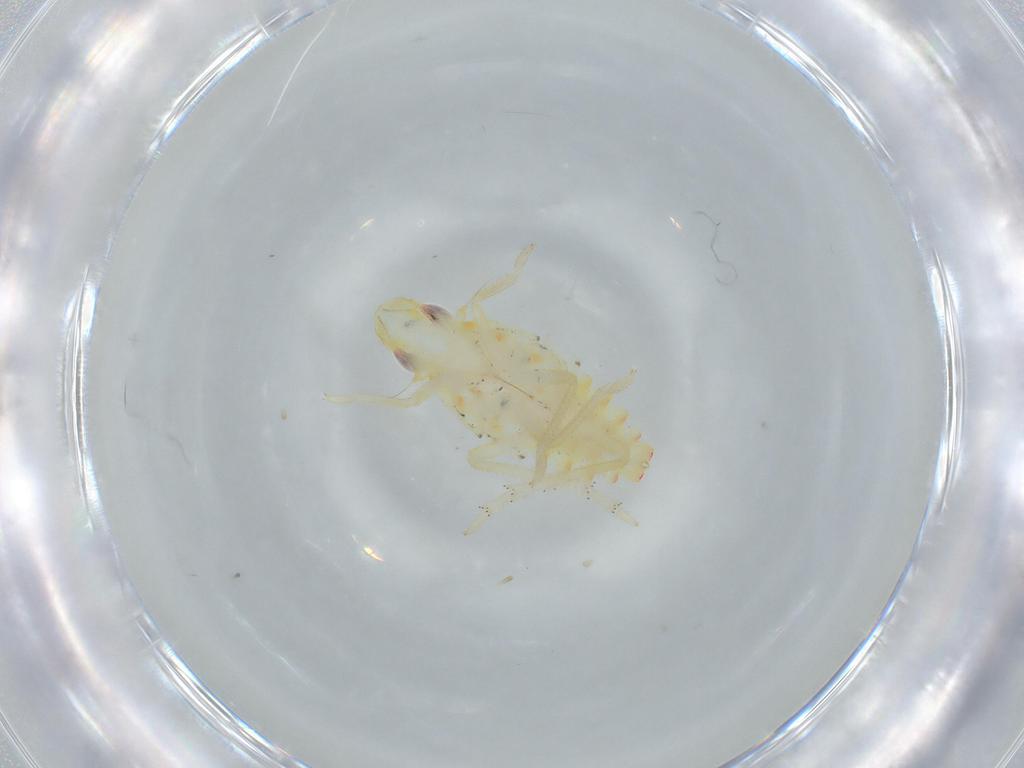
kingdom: Animalia
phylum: Arthropoda
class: Insecta
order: Hemiptera
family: Tropiduchidae
